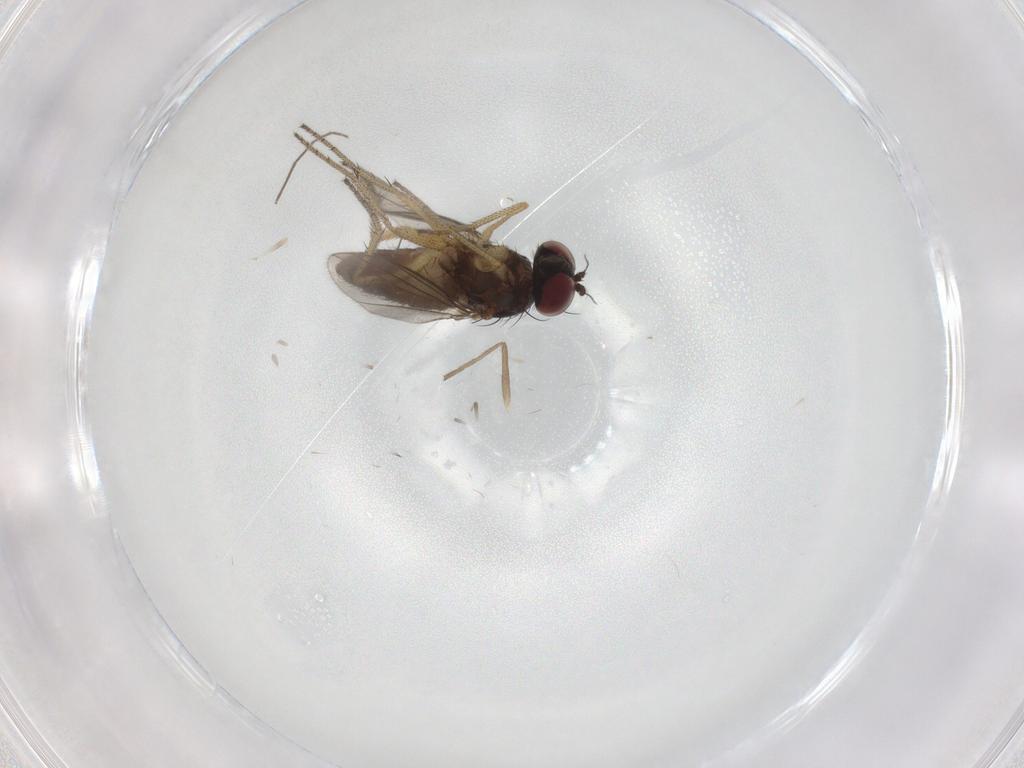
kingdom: Animalia
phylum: Arthropoda
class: Insecta
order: Diptera
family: Dolichopodidae
